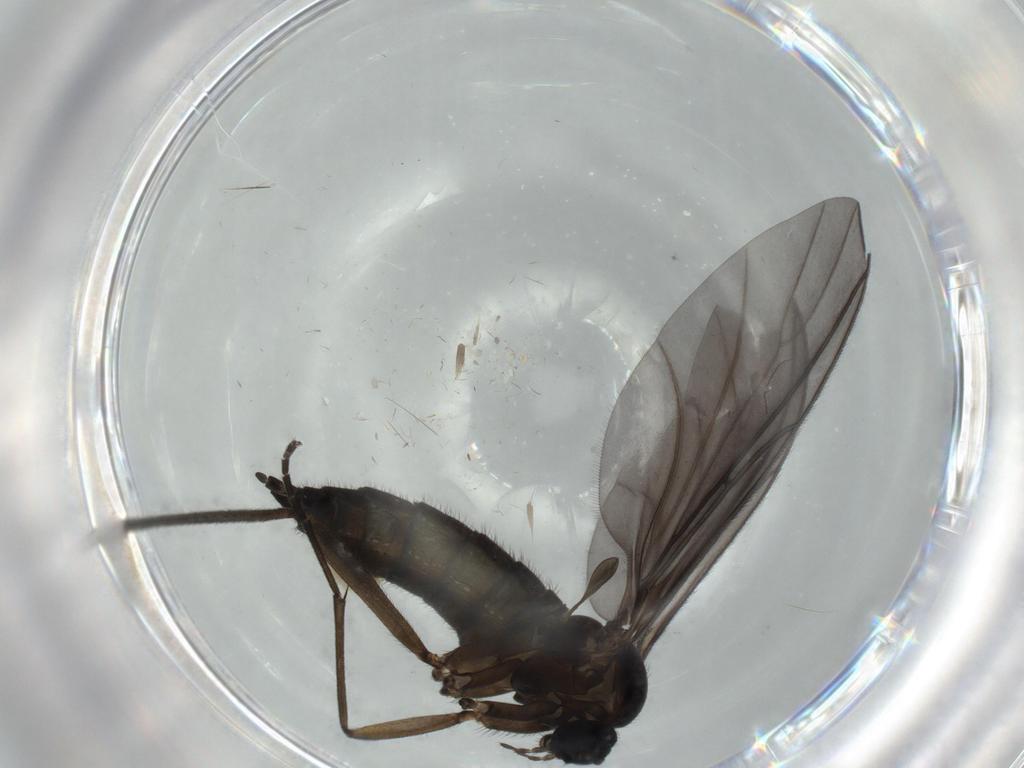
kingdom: Animalia
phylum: Arthropoda
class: Insecta
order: Diptera
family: Sciaridae
